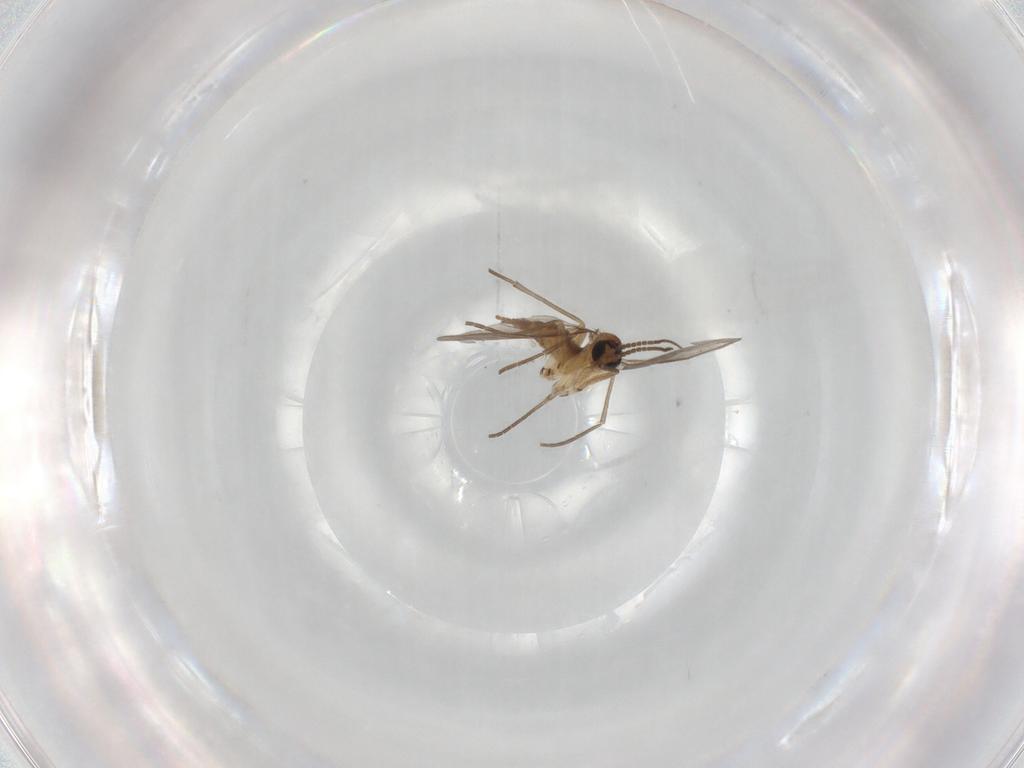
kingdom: Animalia
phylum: Arthropoda
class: Insecta
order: Diptera
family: Sciaridae
